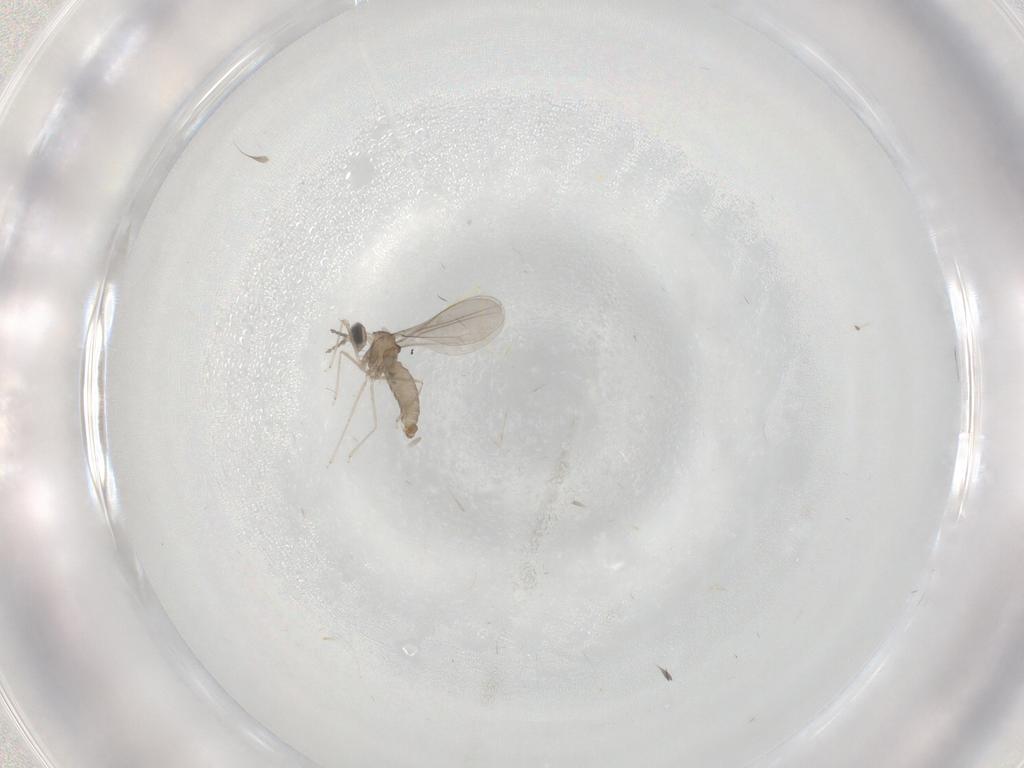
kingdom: Animalia
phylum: Arthropoda
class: Insecta
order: Diptera
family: Cecidomyiidae
